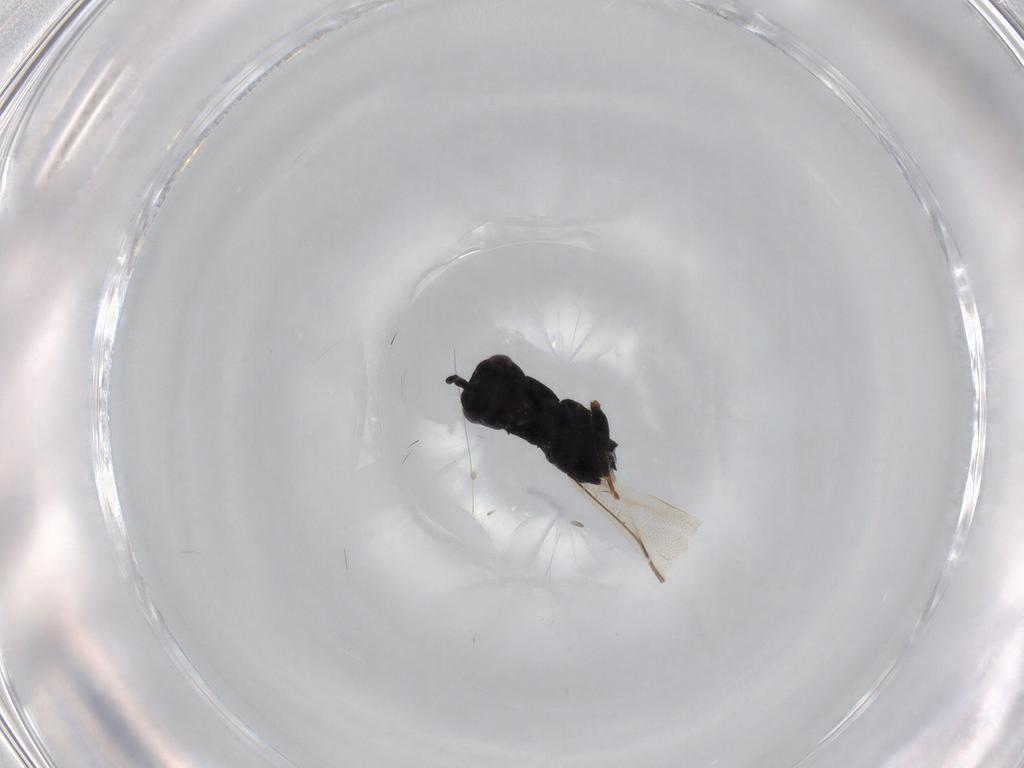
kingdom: Animalia
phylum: Arthropoda
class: Insecta
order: Hymenoptera
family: Eurytomidae
